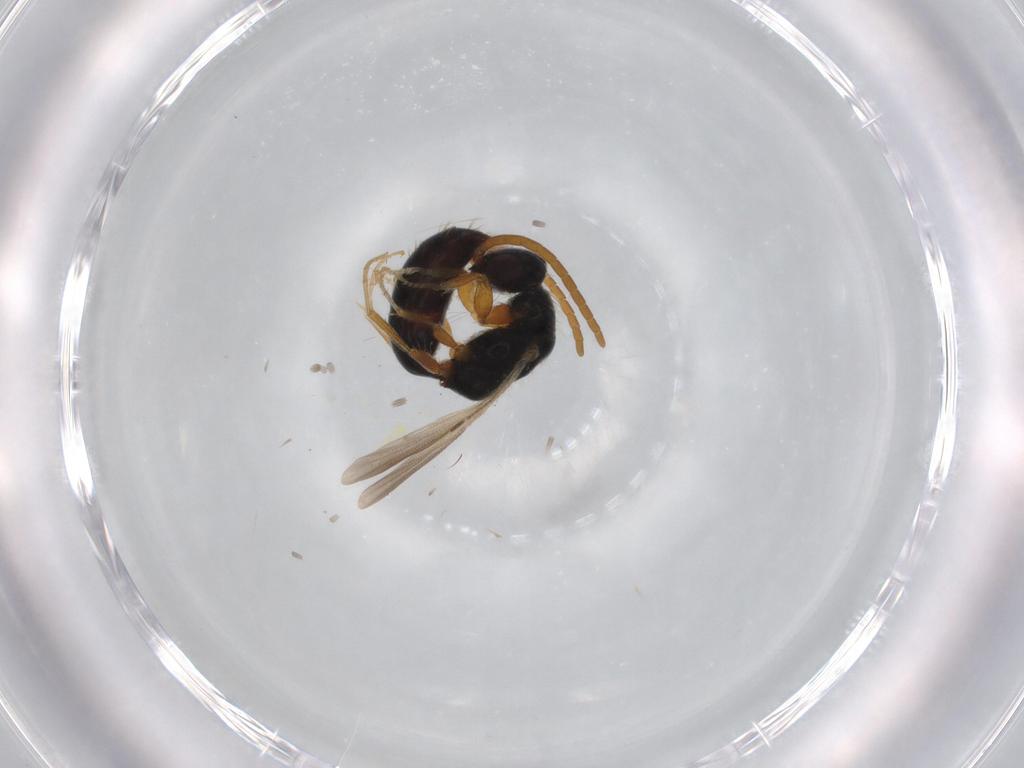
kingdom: Animalia
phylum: Arthropoda
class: Insecta
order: Hymenoptera
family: Bethylidae
